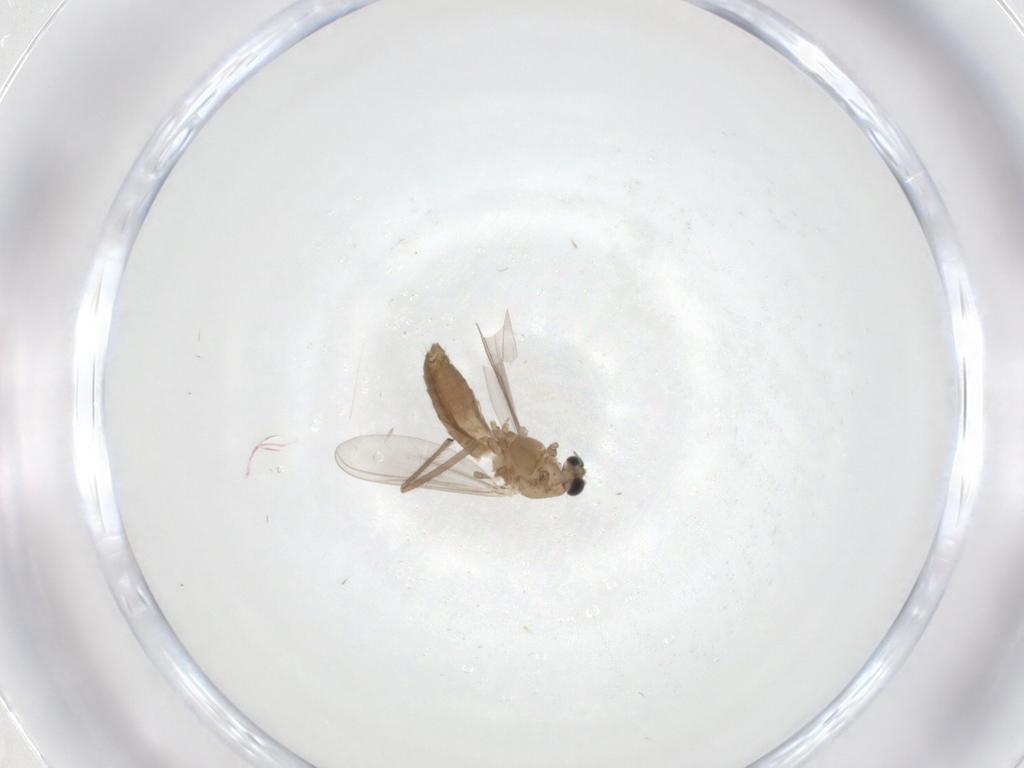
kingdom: Animalia
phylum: Arthropoda
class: Insecta
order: Diptera
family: Chironomidae
